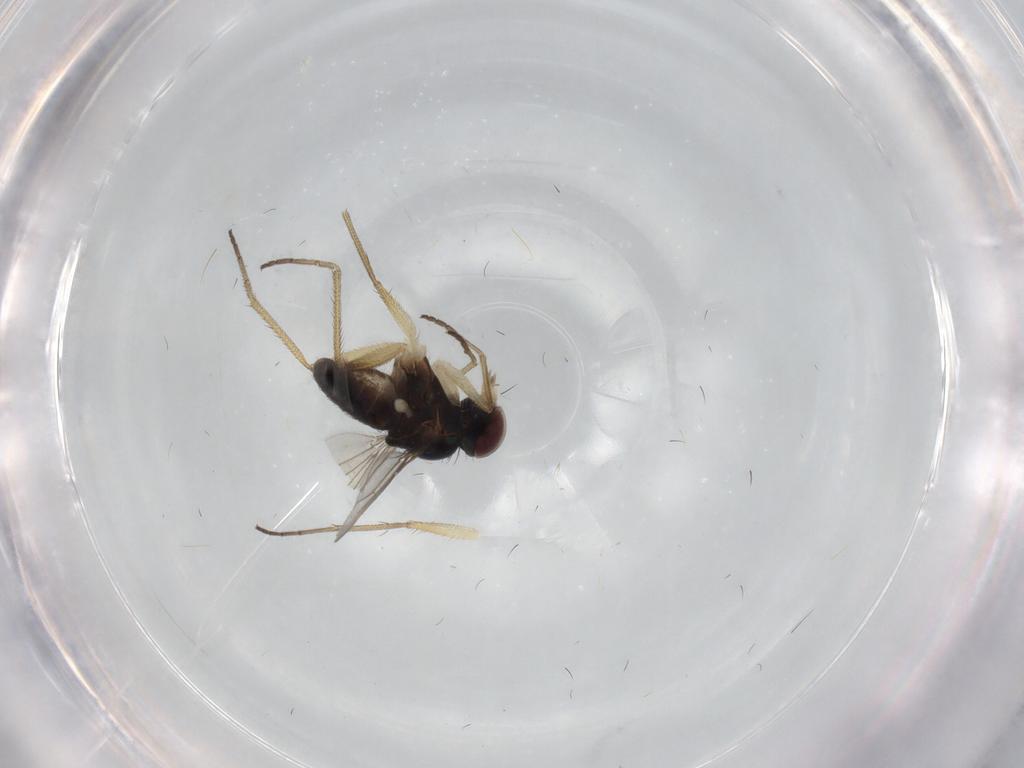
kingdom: Animalia
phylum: Arthropoda
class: Insecta
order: Diptera
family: Dolichopodidae
